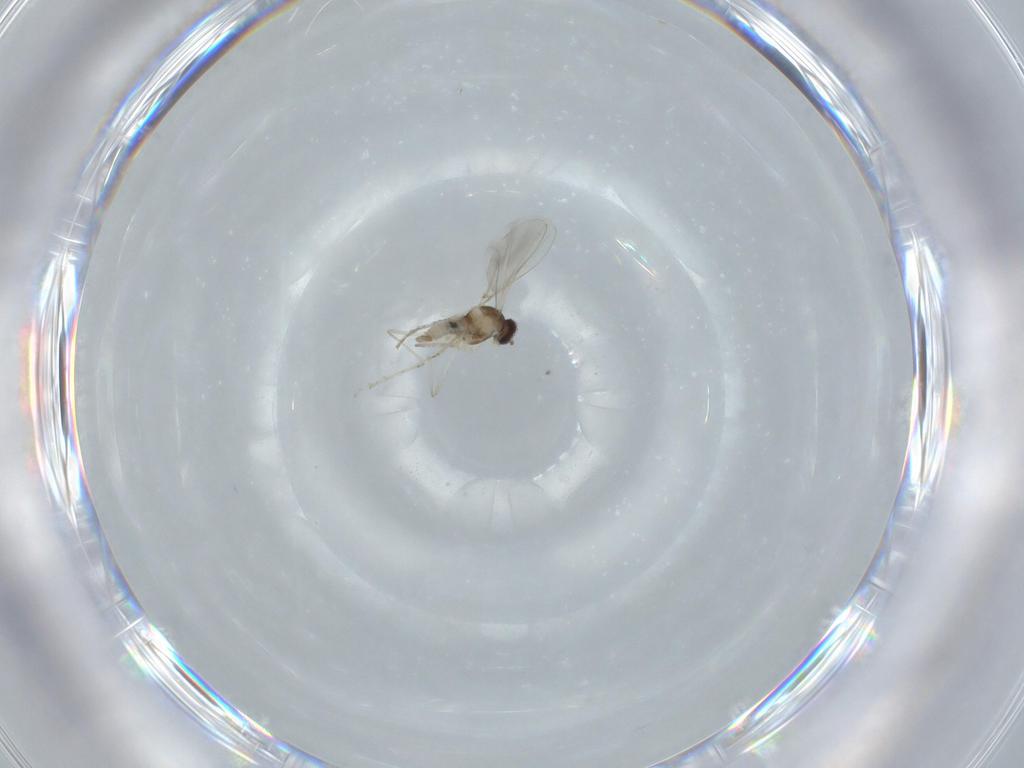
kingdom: Animalia
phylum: Arthropoda
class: Insecta
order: Diptera
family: Cecidomyiidae
